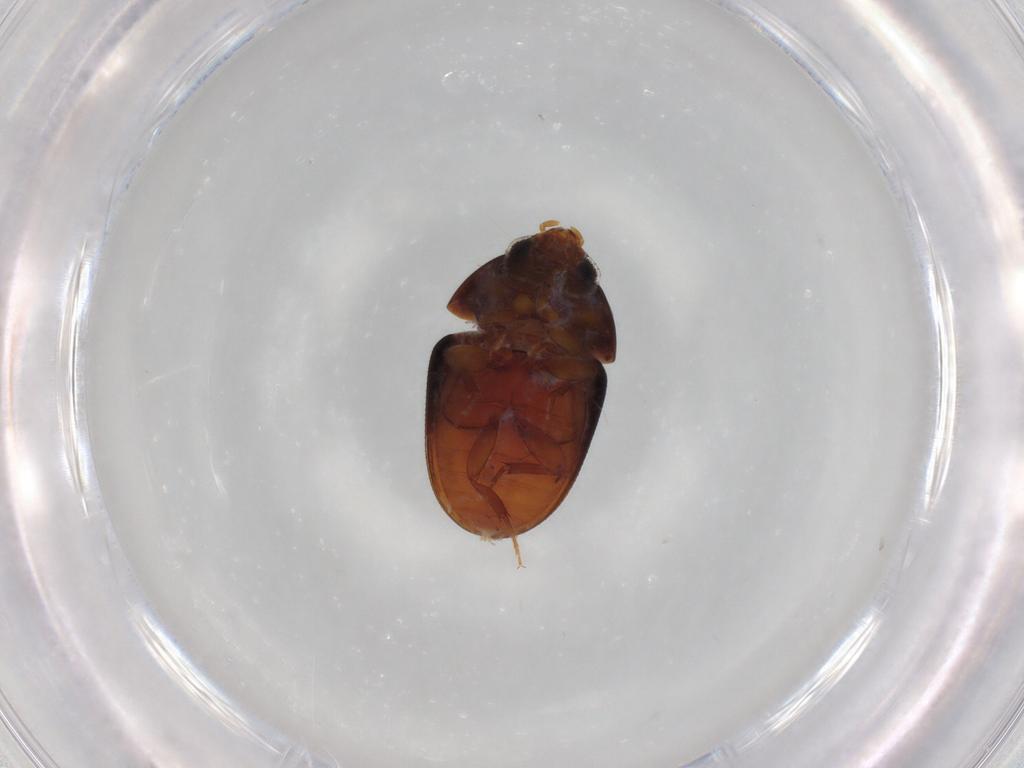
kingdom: Animalia
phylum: Arthropoda
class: Insecta
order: Coleoptera
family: Phalacridae
